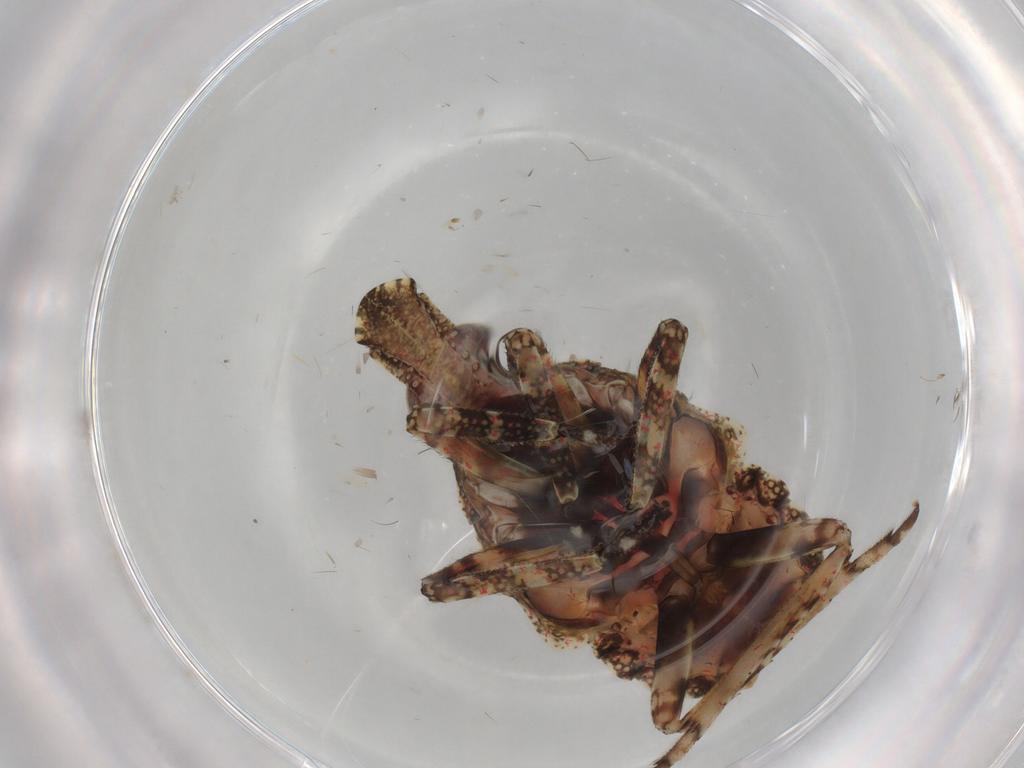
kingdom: Animalia
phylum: Arthropoda
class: Insecta
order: Hemiptera
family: Fulgoridae
